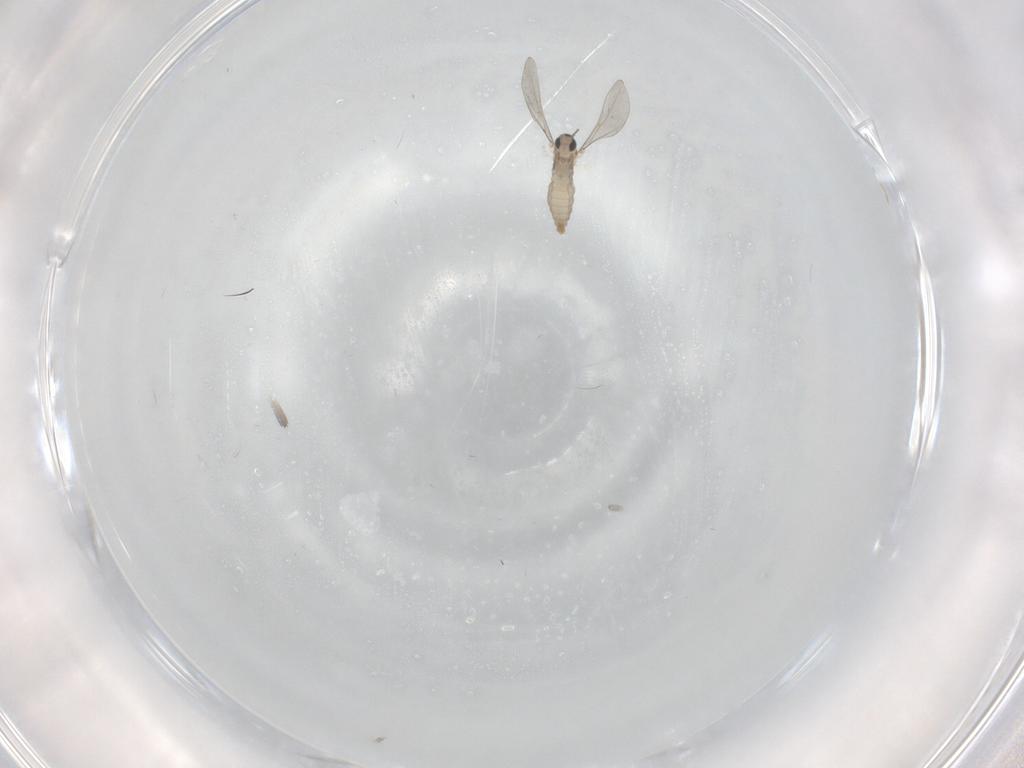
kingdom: Animalia
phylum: Arthropoda
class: Insecta
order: Diptera
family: Cecidomyiidae
